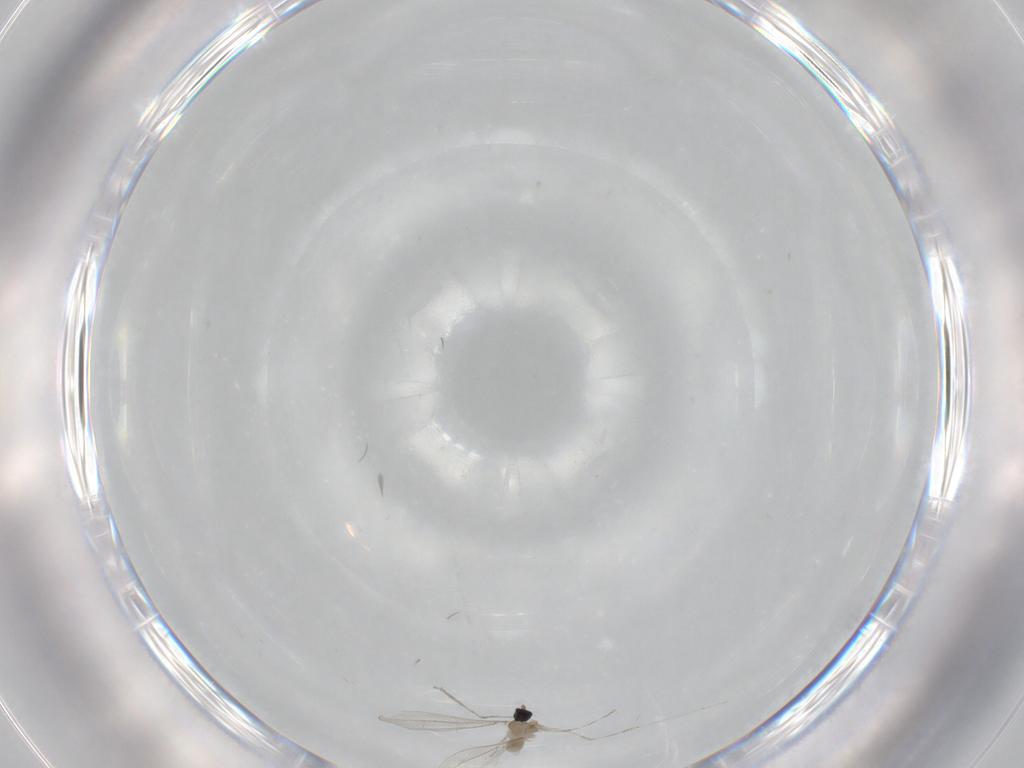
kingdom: Animalia
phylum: Arthropoda
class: Insecta
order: Diptera
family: Cecidomyiidae
